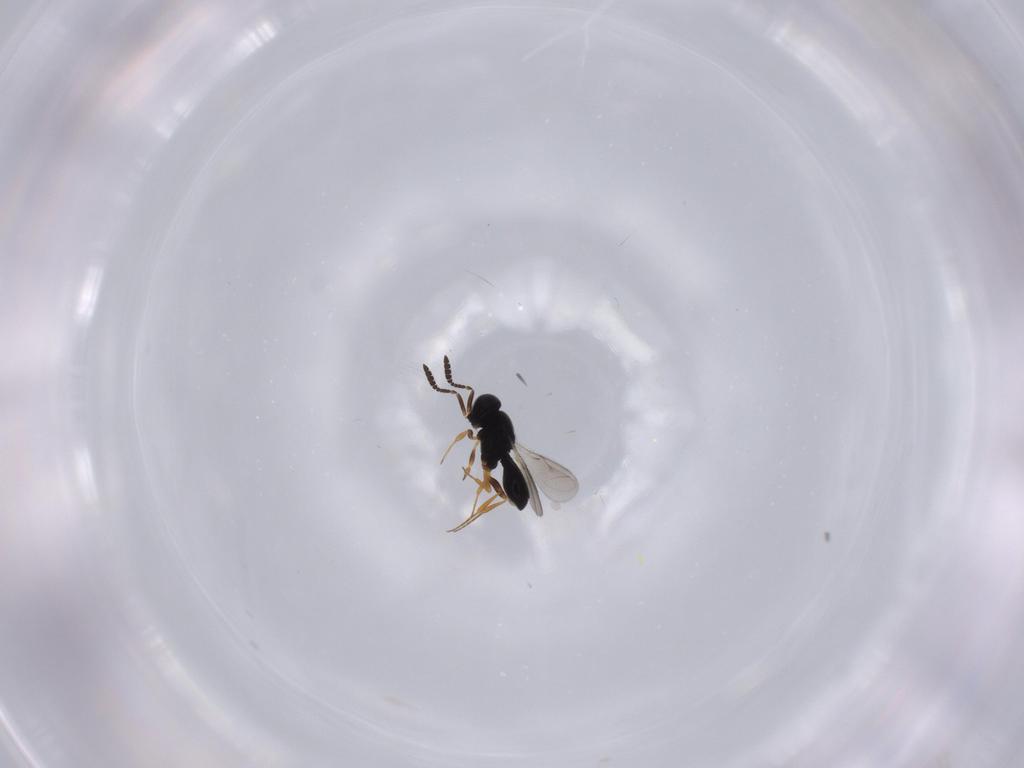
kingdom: Animalia
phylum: Arthropoda
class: Insecta
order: Hymenoptera
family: Scelionidae
